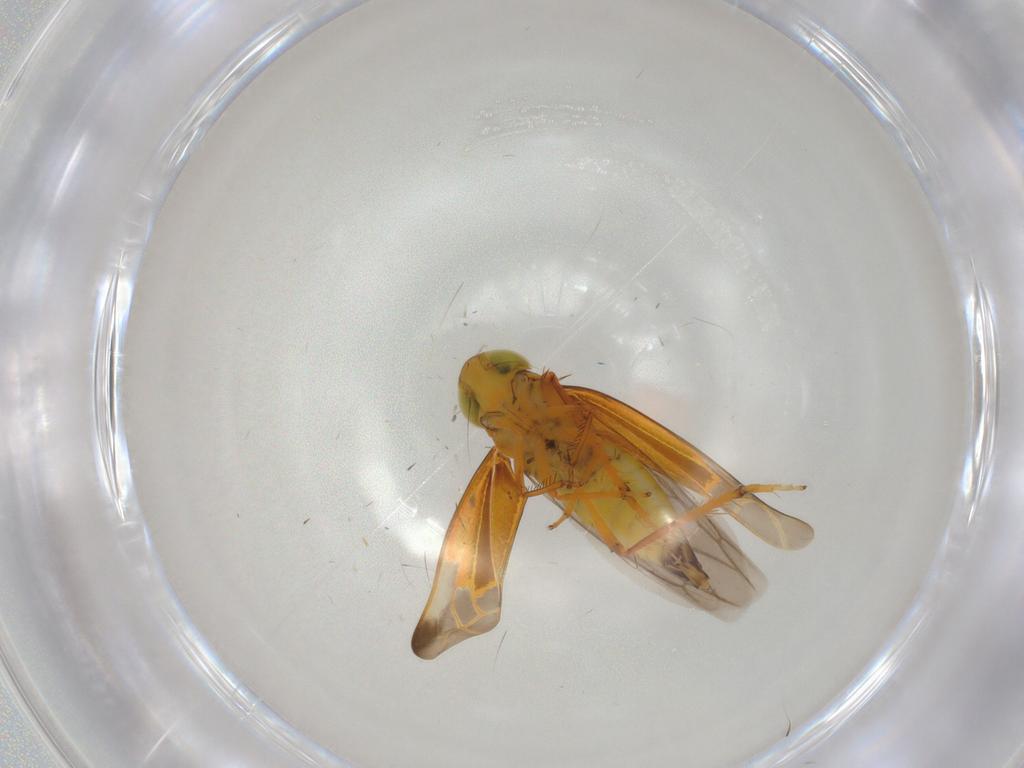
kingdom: Animalia
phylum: Arthropoda
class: Insecta
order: Hemiptera
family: Cicadellidae
